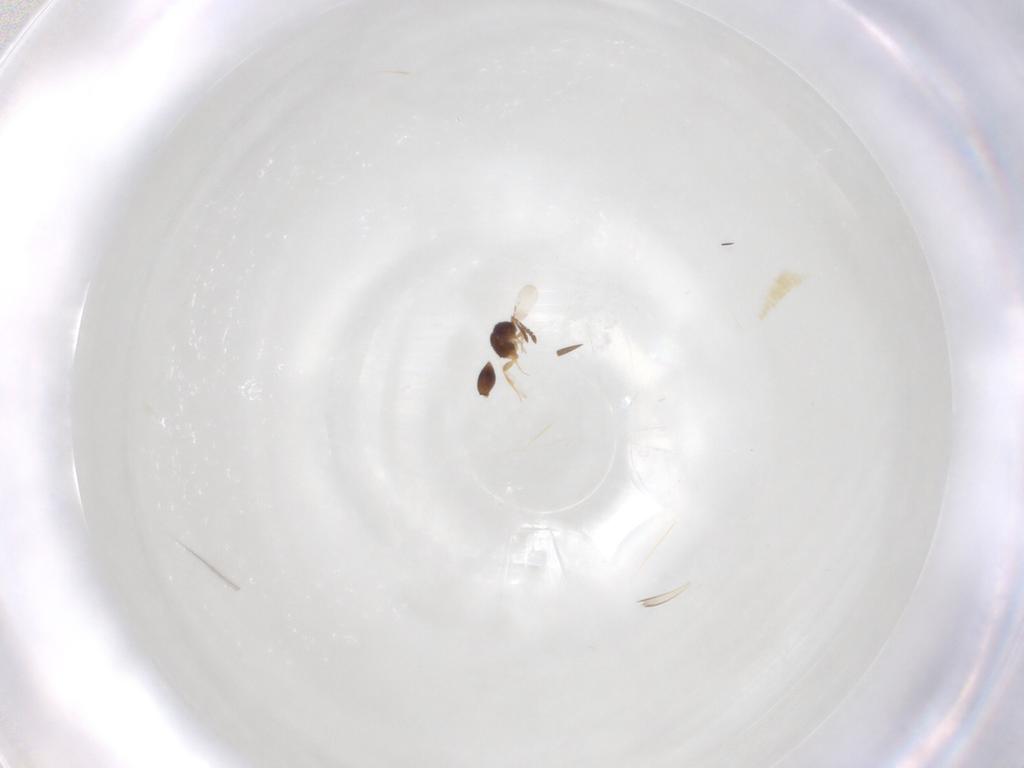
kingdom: Animalia
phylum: Arthropoda
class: Insecta
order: Hymenoptera
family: Ceraphronidae
